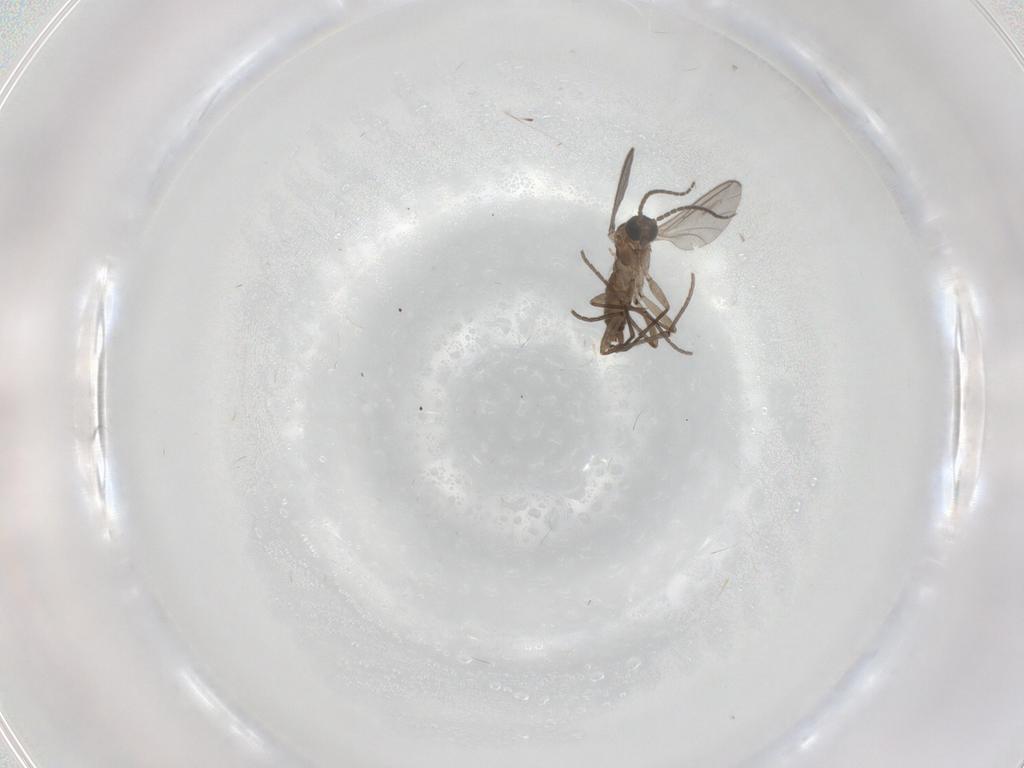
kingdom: Animalia
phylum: Arthropoda
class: Insecta
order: Diptera
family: Sciaridae
